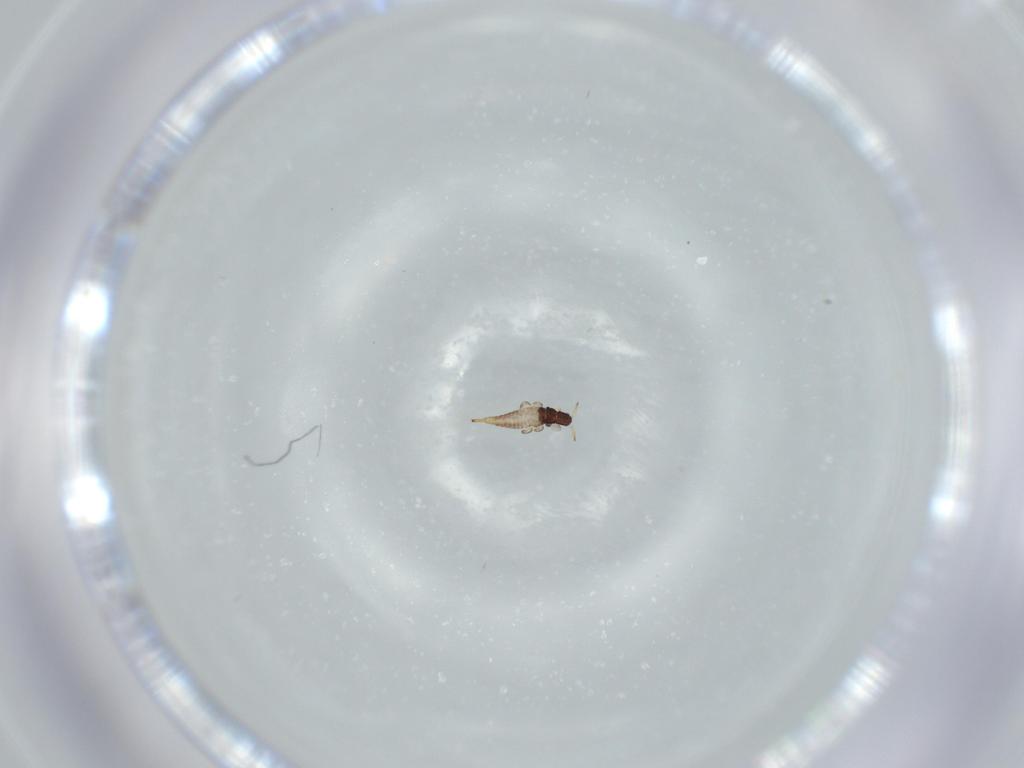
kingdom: Animalia
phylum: Arthropoda
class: Insecta
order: Thysanoptera
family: Phlaeothripidae
